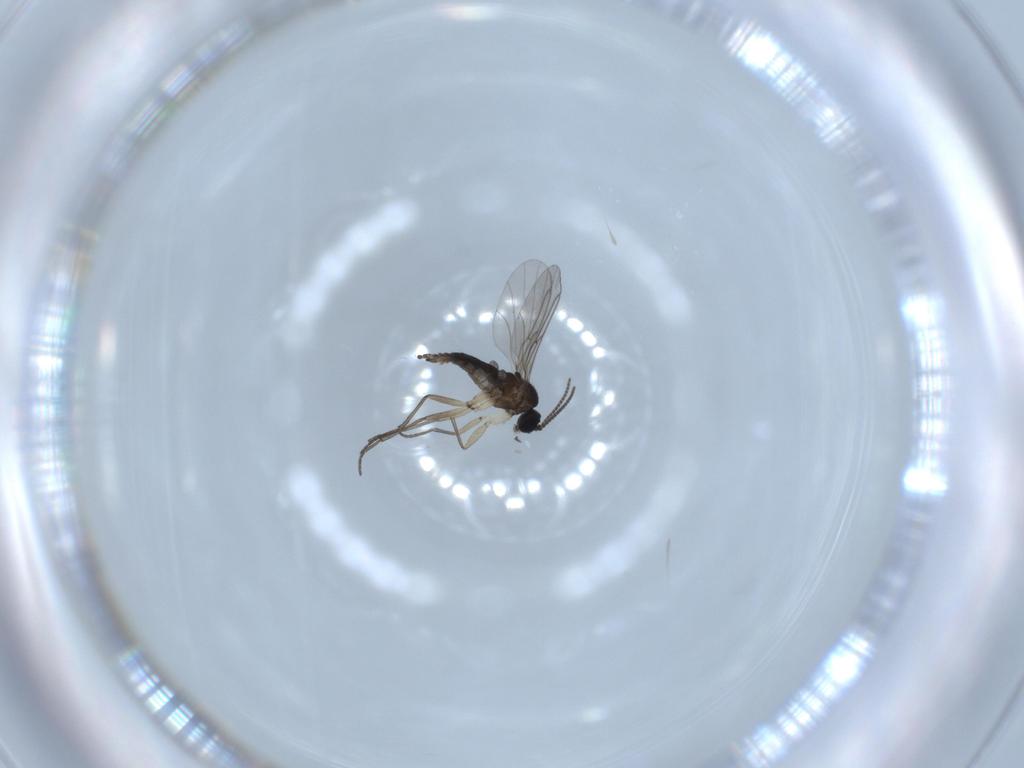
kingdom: Animalia
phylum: Arthropoda
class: Insecta
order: Diptera
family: Sciaridae
